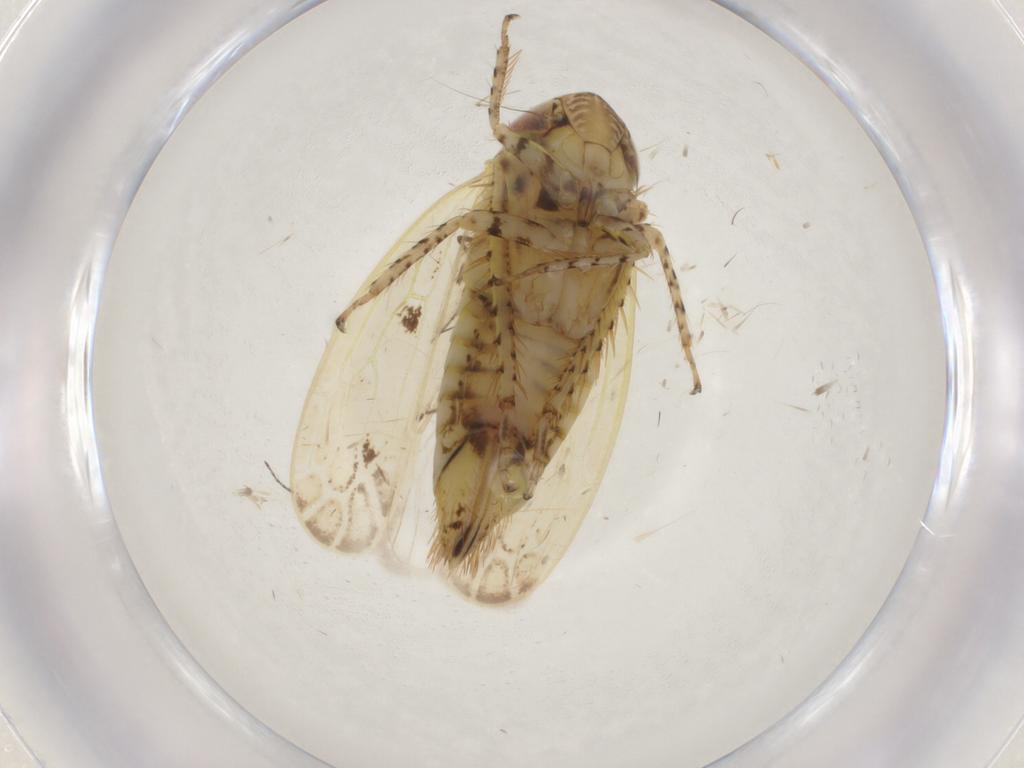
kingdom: Animalia
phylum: Arthropoda
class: Insecta
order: Hemiptera
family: Cicadellidae
